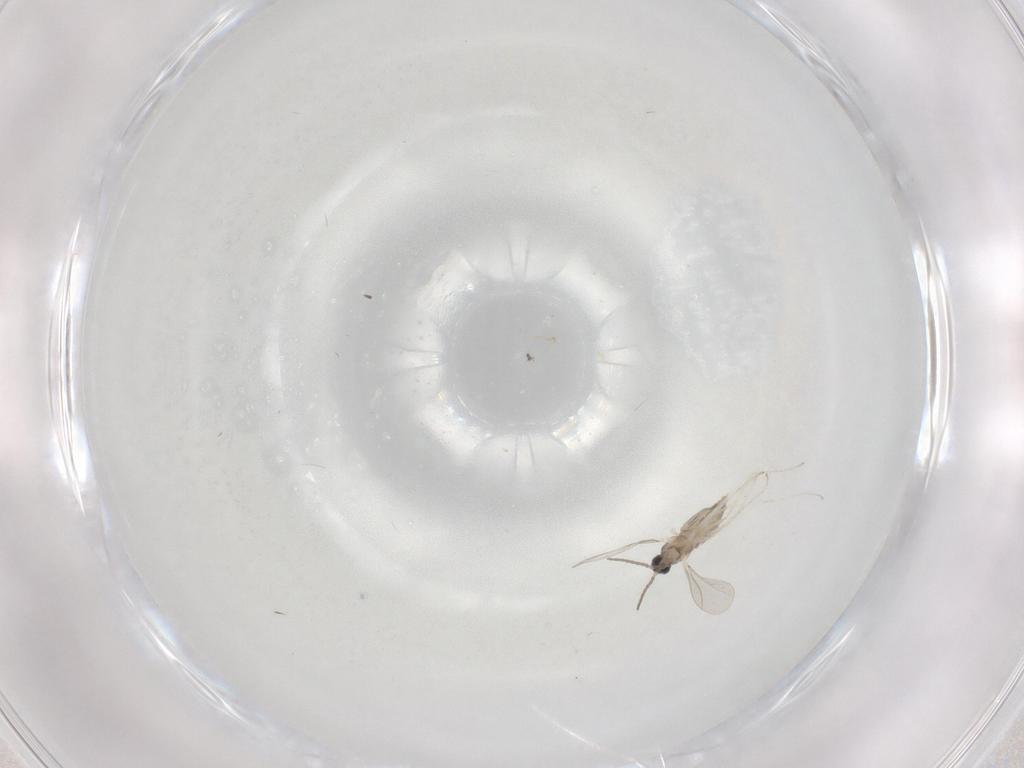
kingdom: Animalia
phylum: Arthropoda
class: Insecta
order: Diptera
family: Cecidomyiidae
